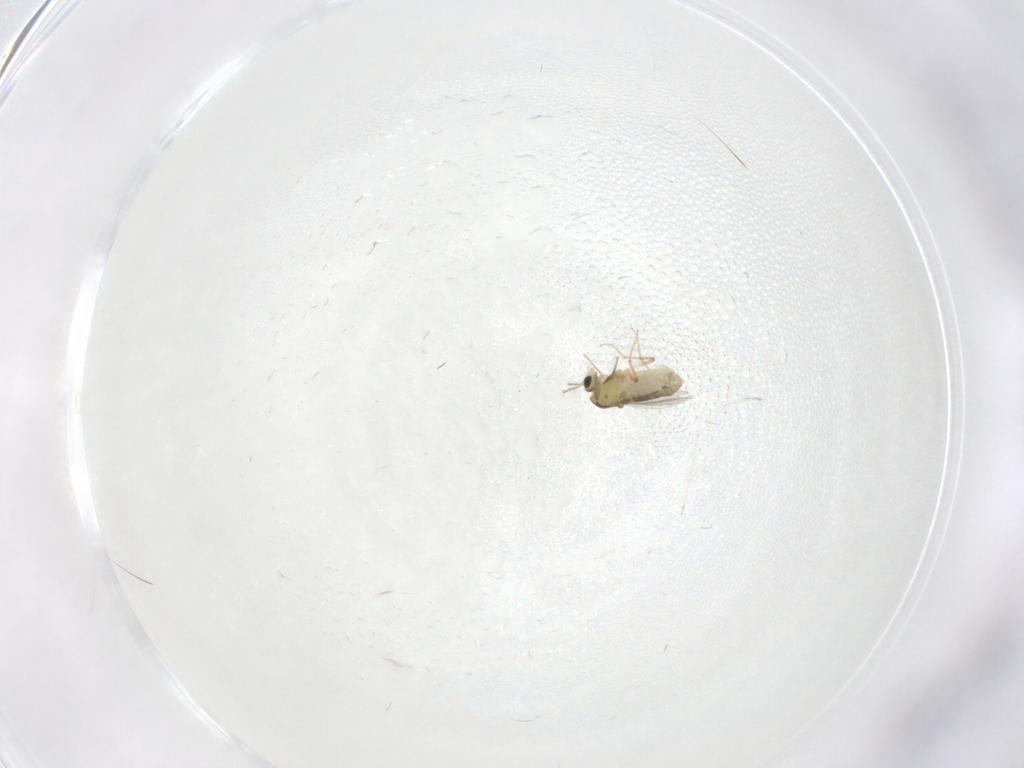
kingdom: Animalia
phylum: Arthropoda
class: Insecta
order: Diptera
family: Chironomidae
